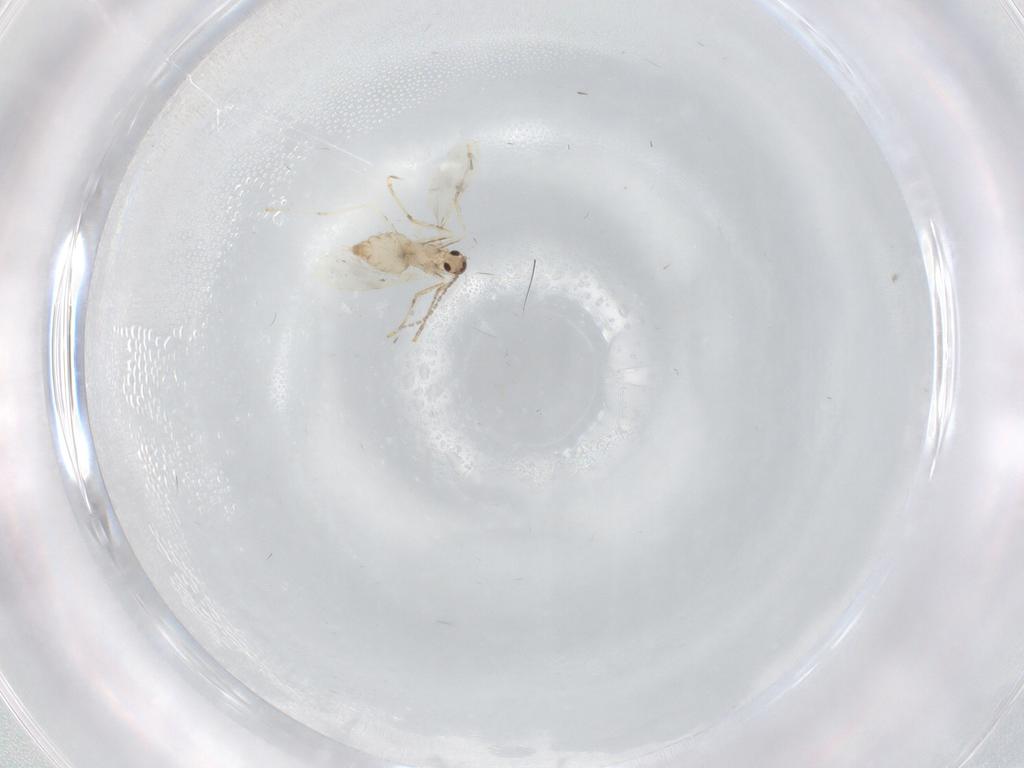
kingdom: Animalia
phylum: Arthropoda
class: Insecta
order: Diptera
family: Cecidomyiidae
